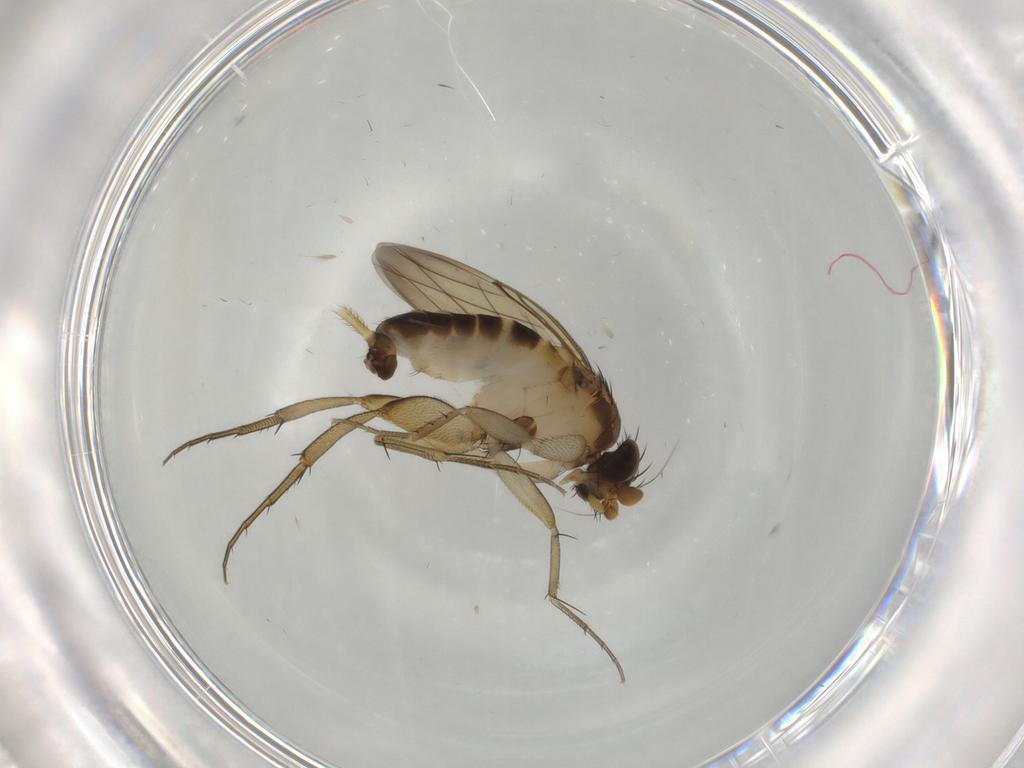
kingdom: Animalia
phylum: Arthropoda
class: Insecta
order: Diptera
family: Phoridae
